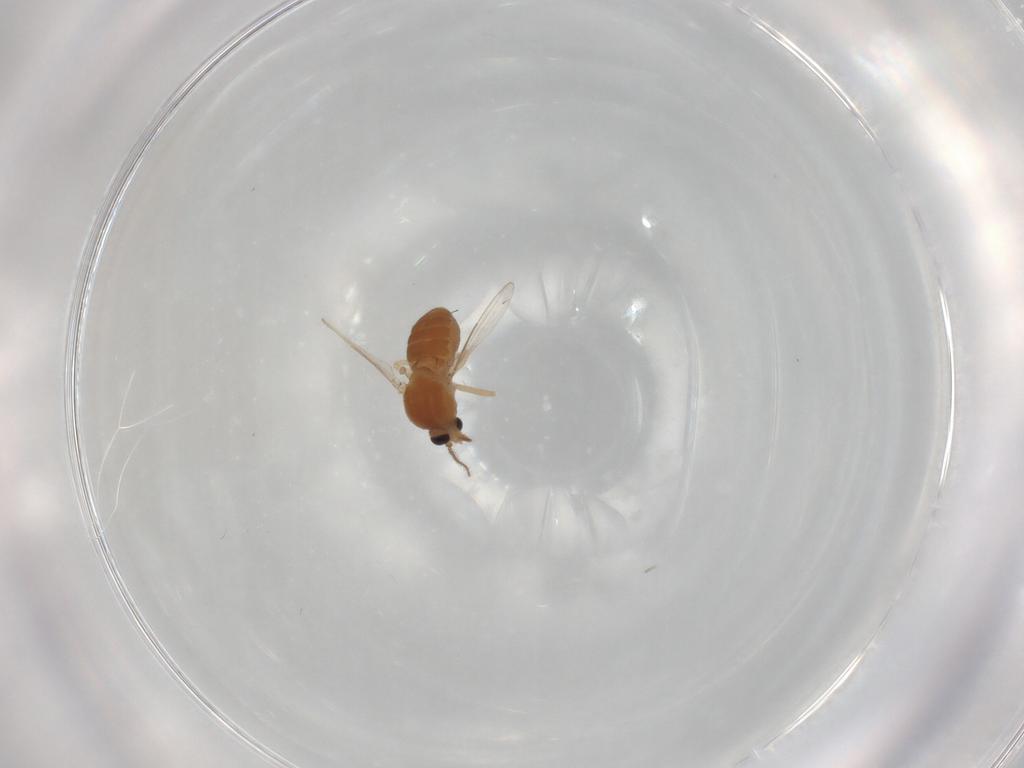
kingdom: Animalia
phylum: Arthropoda
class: Insecta
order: Diptera
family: Ceratopogonidae
